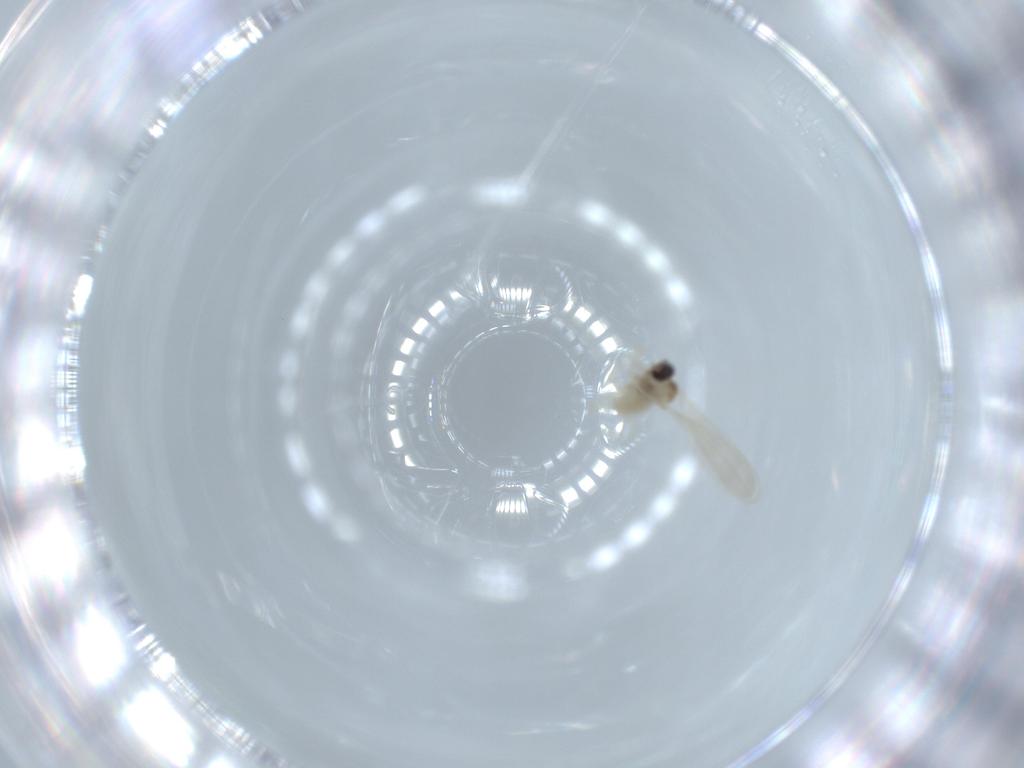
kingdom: Animalia
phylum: Arthropoda
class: Insecta
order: Diptera
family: Cecidomyiidae
